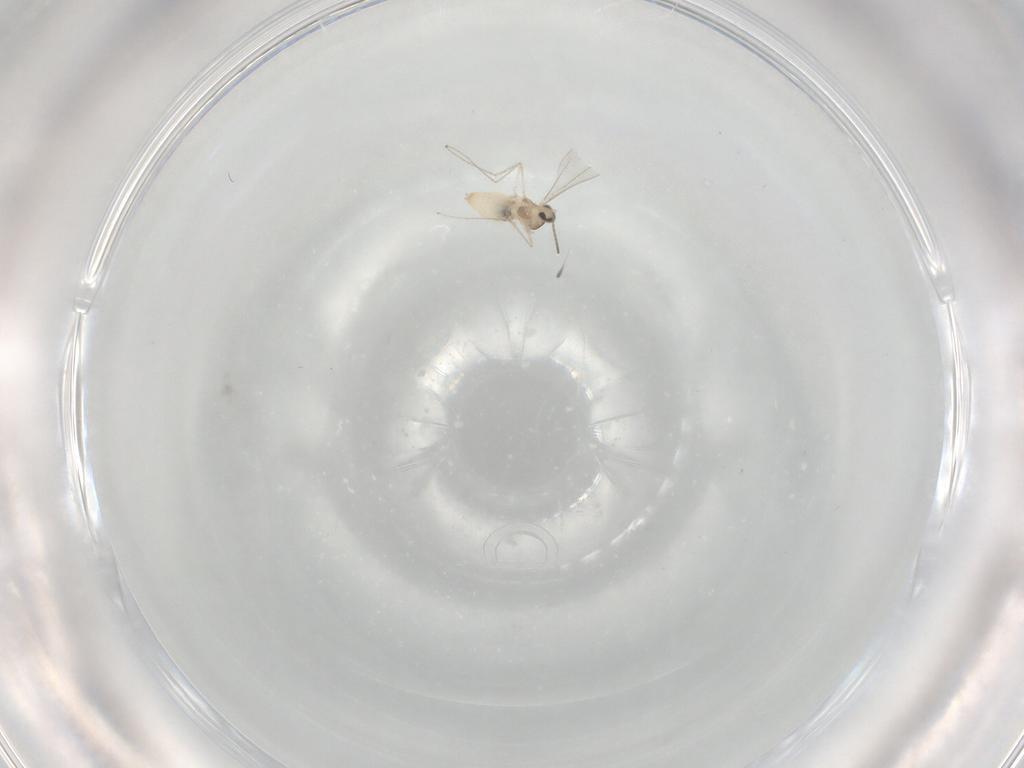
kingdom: Animalia
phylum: Arthropoda
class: Insecta
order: Diptera
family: Cecidomyiidae
